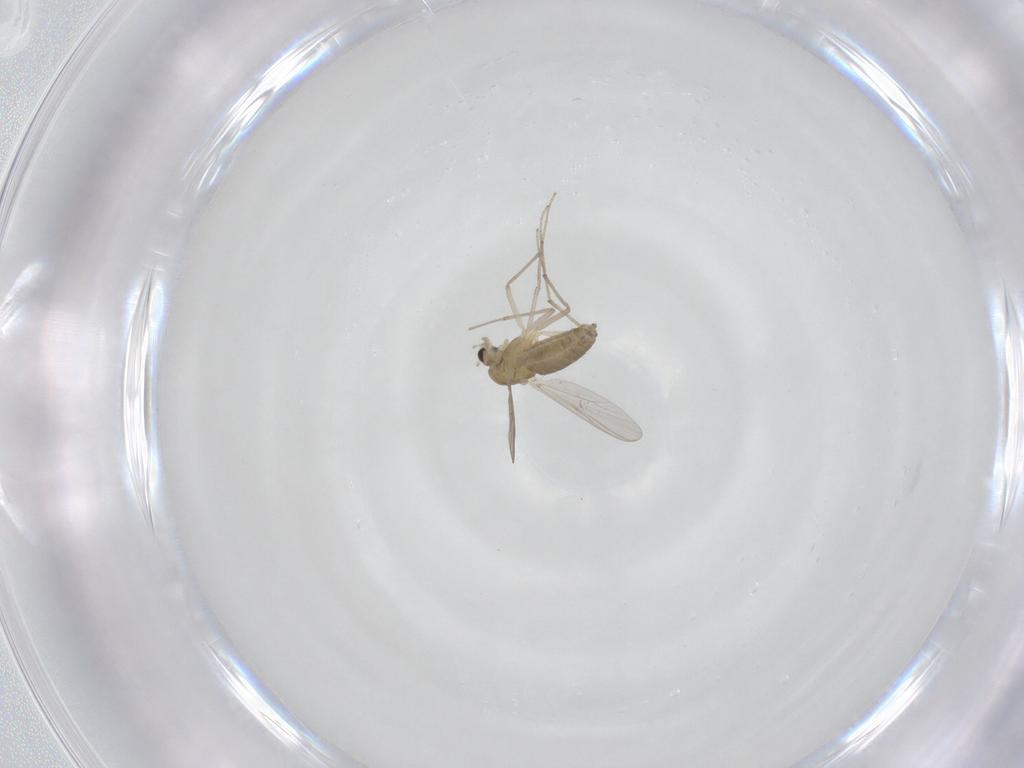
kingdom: Animalia
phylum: Arthropoda
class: Insecta
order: Diptera
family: Chironomidae
